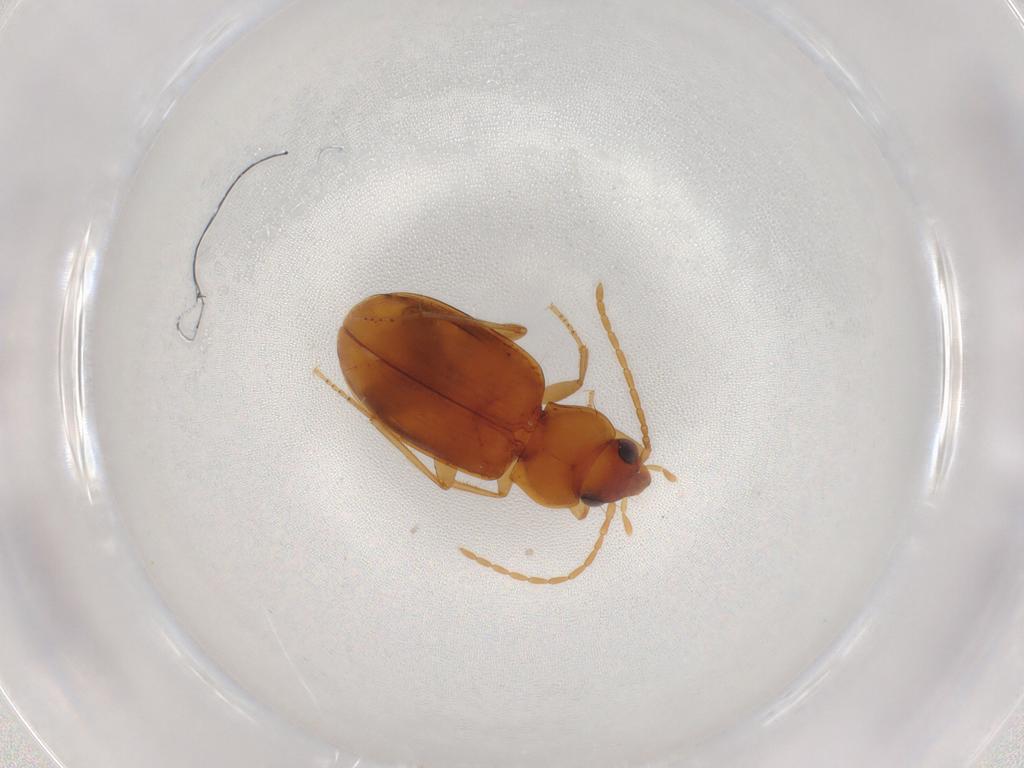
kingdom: Animalia
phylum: Arthropoda
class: Insecta
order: Coleoptera
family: Carabidae
